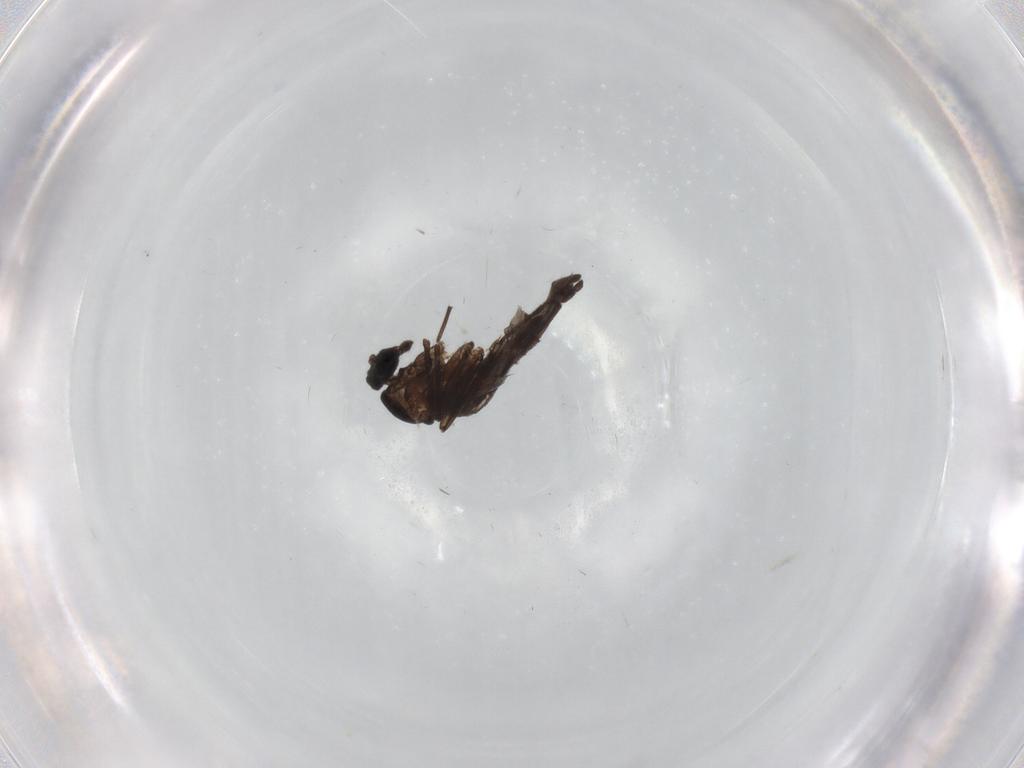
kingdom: Animalia
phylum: Arthropoda
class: Insecta
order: Diptera
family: Cecidomyiidae
